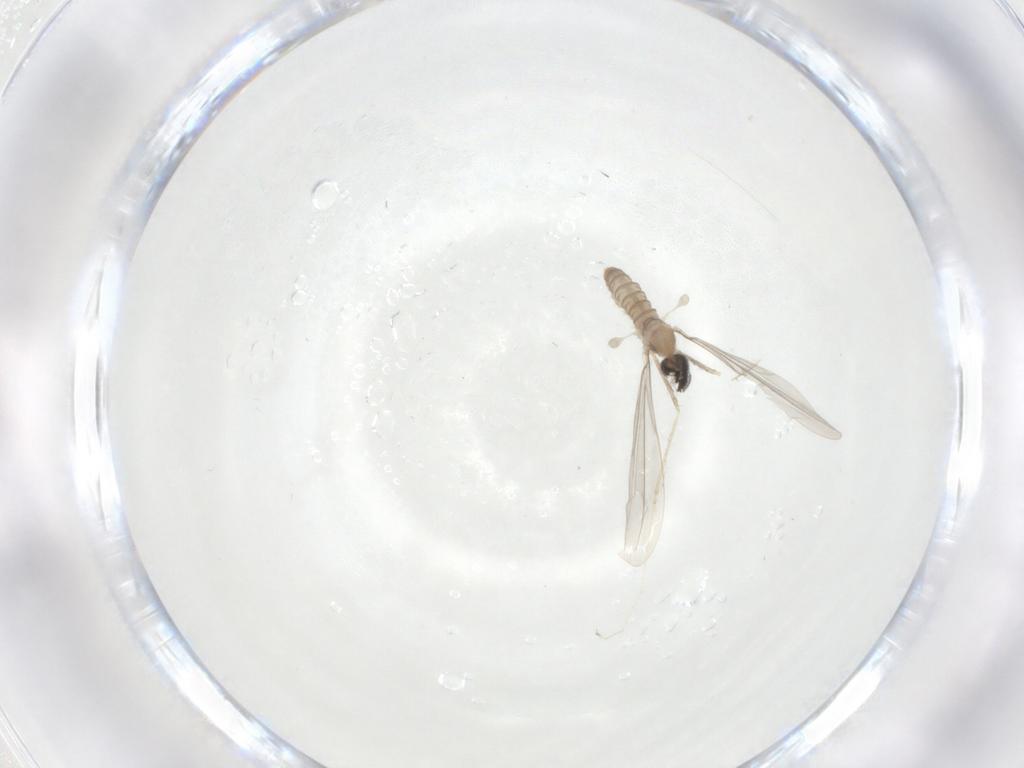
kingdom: Animalia
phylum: Arthropoda
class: Insecta
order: Diptera
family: Cecidomyiidae
